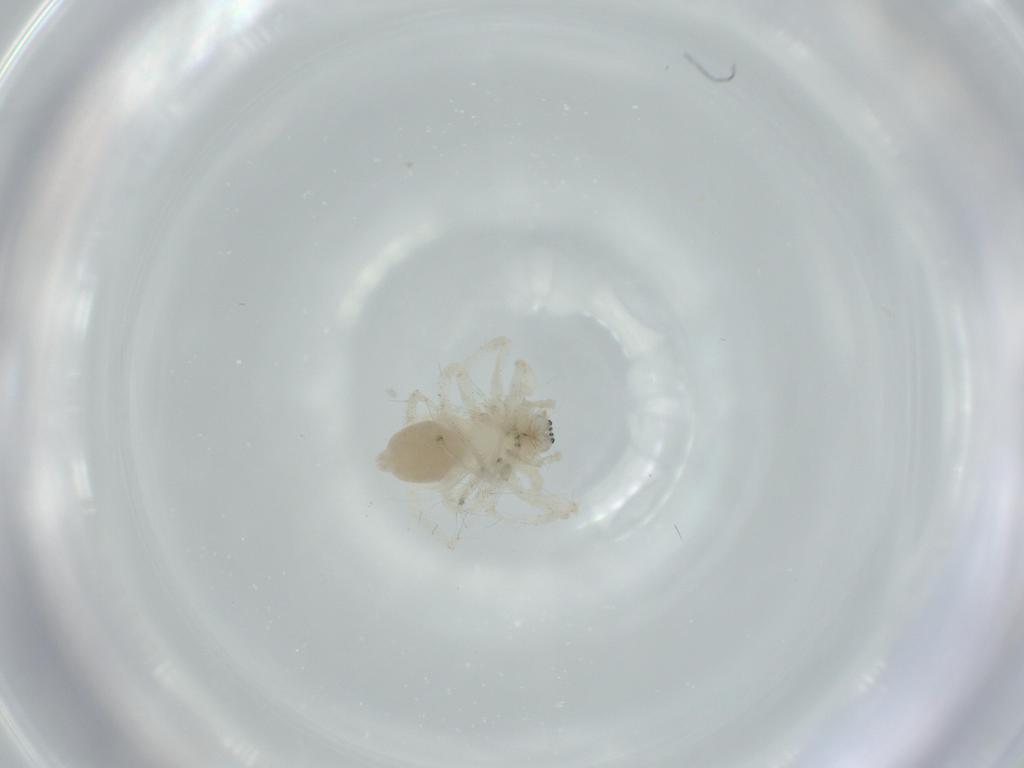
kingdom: Animalia
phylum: Arthropoda
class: Arachnida
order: Araneae
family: Anyphaenidae
